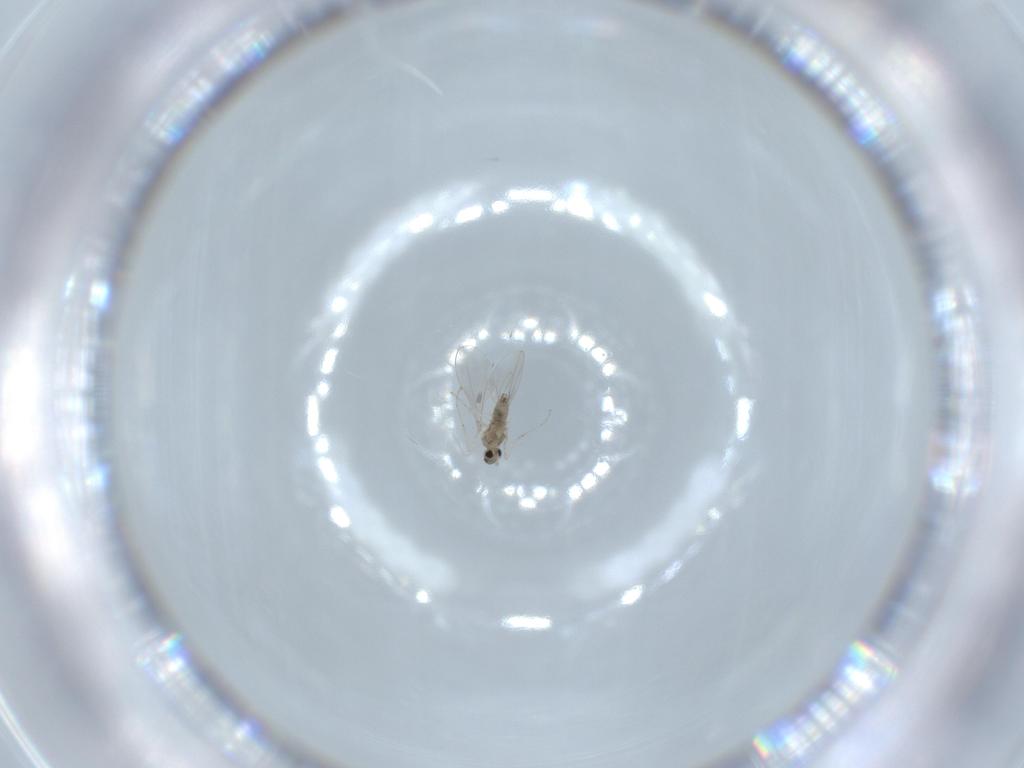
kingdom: Animalia
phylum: Arthropoda
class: Insecta
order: Diptera
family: Cecidomyiidae
